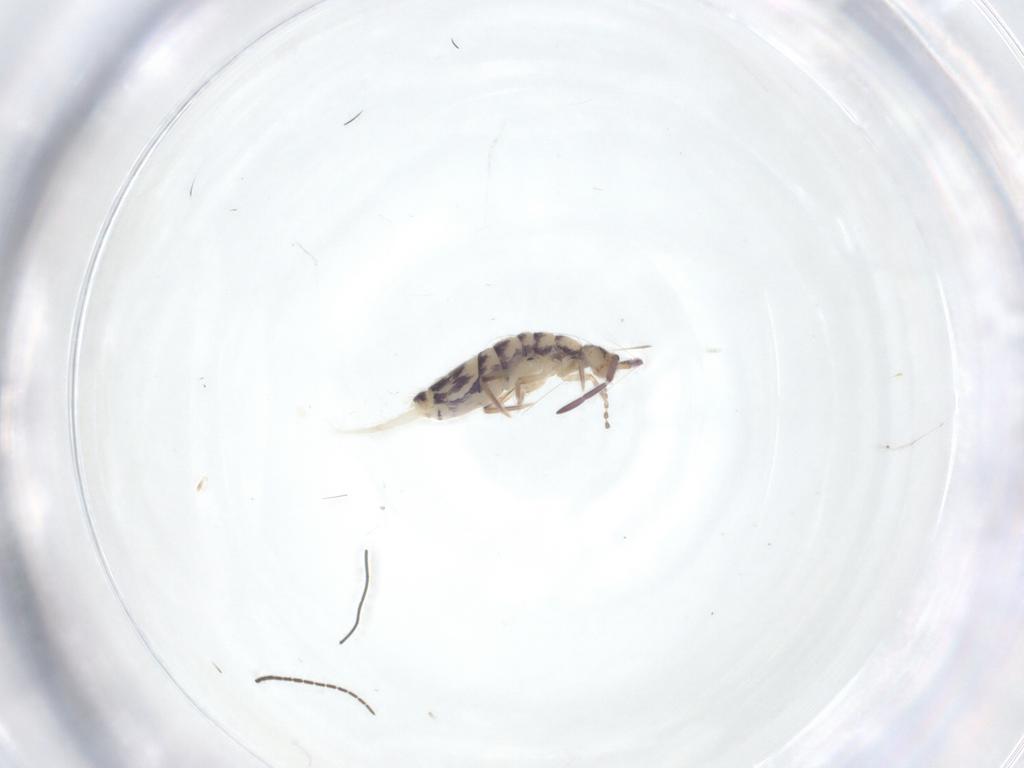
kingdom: Animalia
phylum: Arthropoda
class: Collembola
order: Entomobryomorpha
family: Entomobryidae
